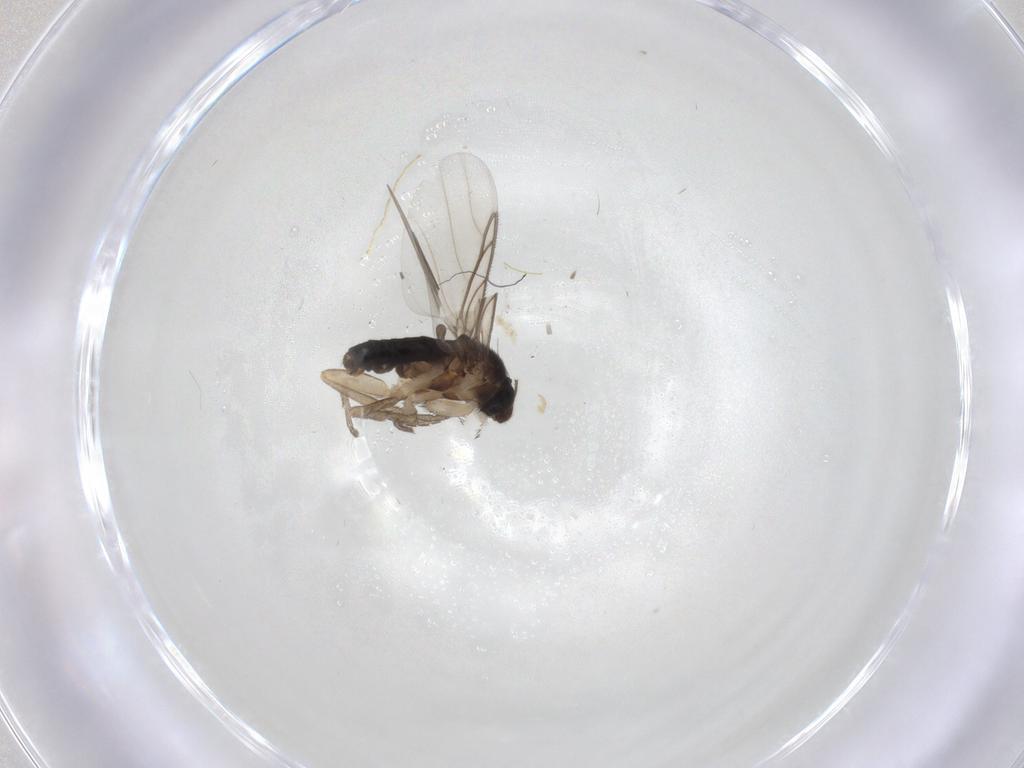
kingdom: Animalia
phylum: Arthropoda
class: Insecta
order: Diptera
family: Phoridae
